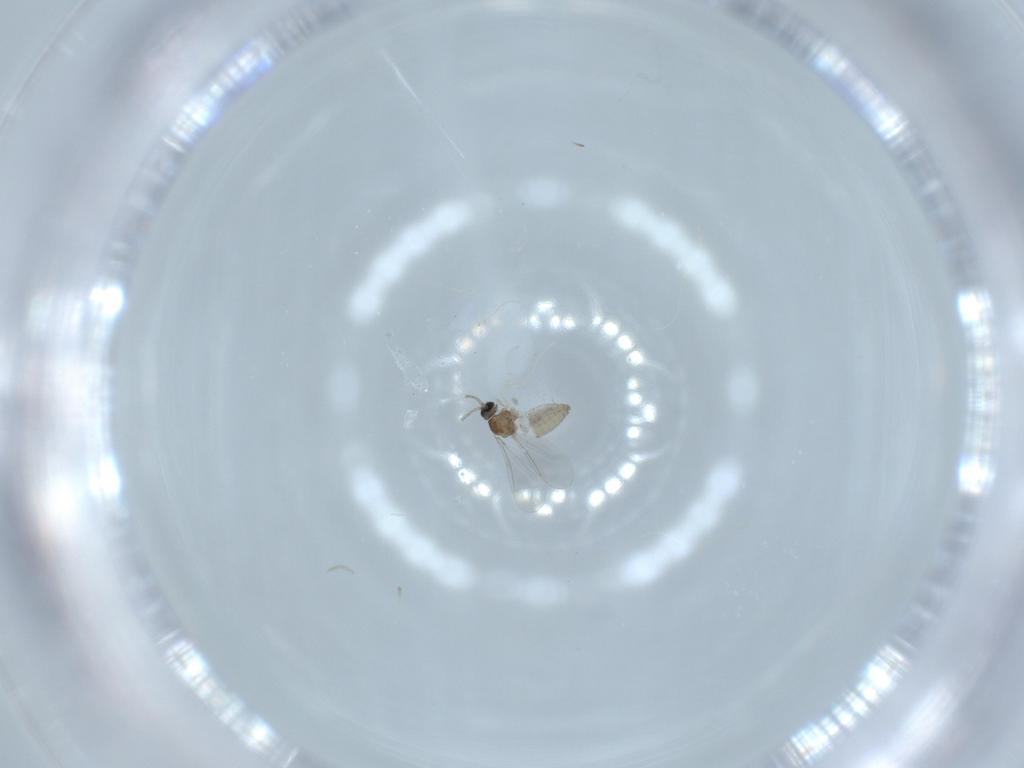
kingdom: Animalia
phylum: Arthropoda
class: Insecta
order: Diptera
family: Cecidomyiidae
